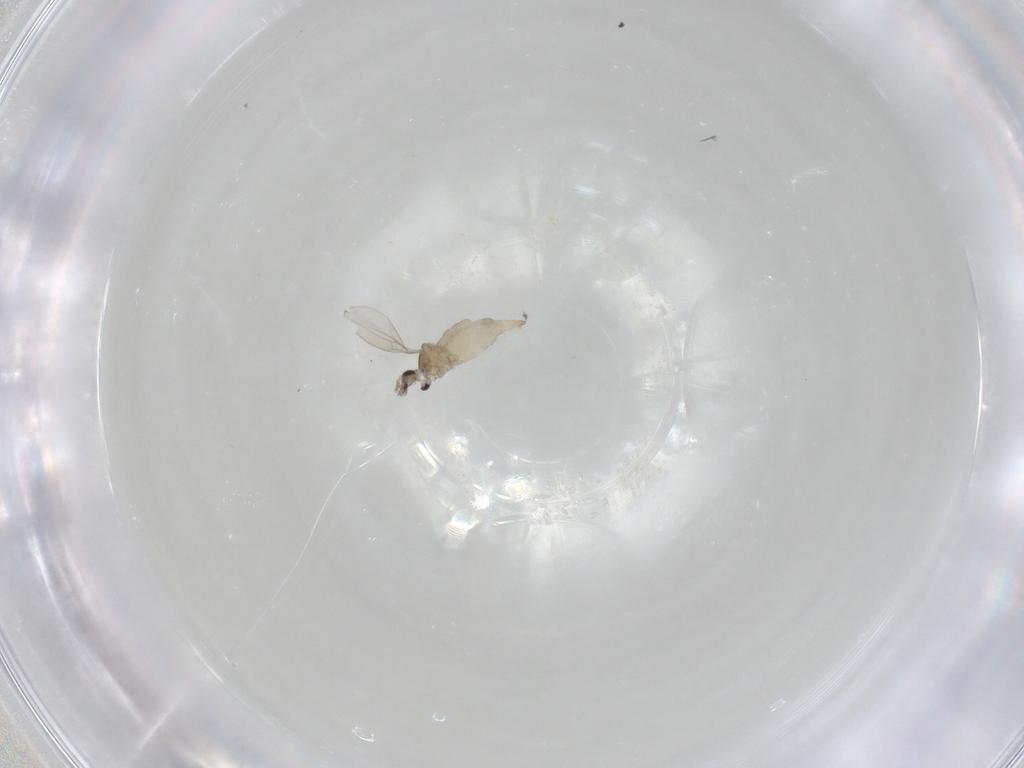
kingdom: Animalia
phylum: Arthropoda
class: Insecta
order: Diptera
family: Cecidomyiidae
